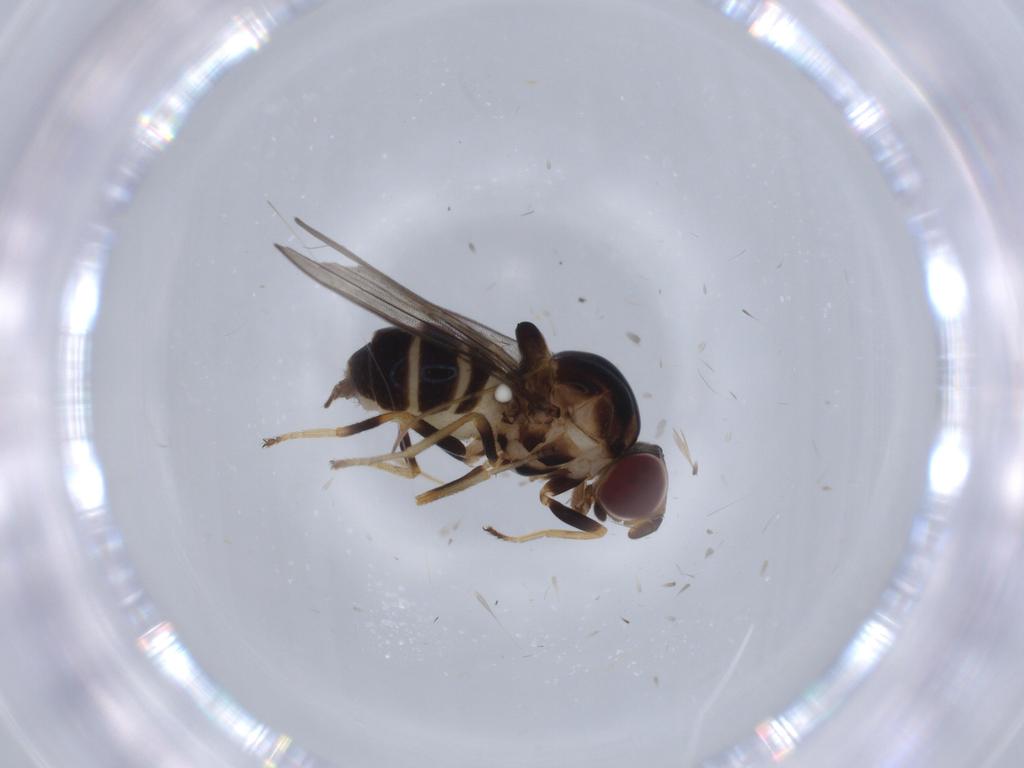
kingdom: Animalia
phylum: Arthropoda
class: Insecta
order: Diptera
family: Chloropidae
